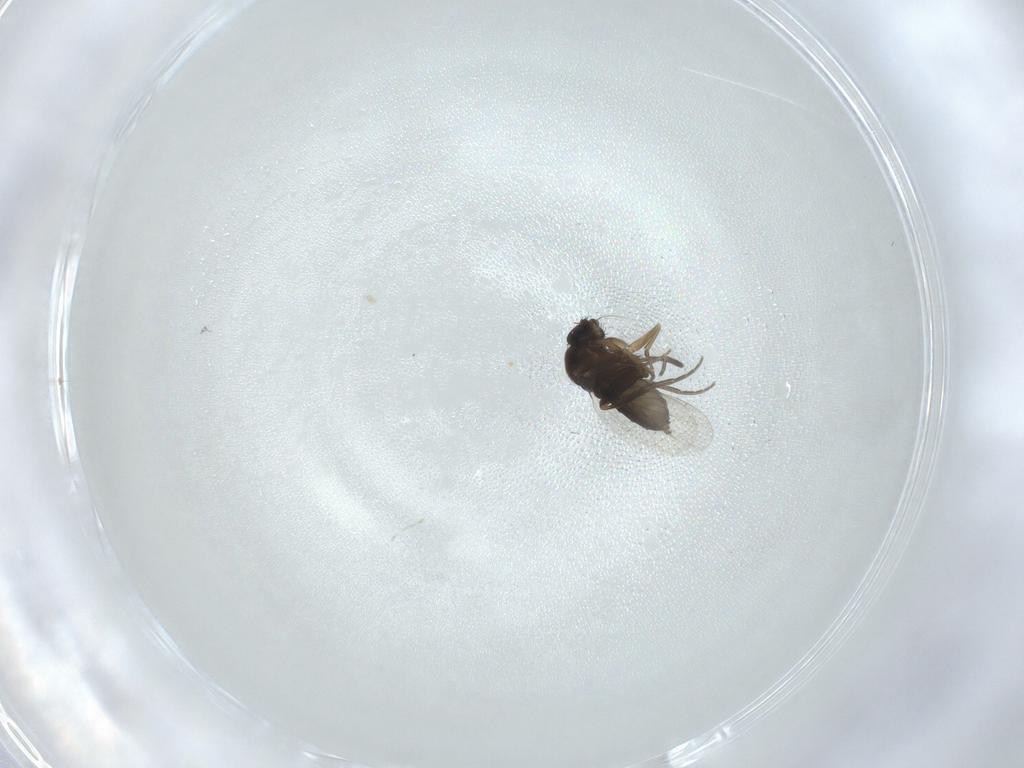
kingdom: Animalia
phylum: Arthropoda
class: Insecta
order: Diptera
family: Phoridae
